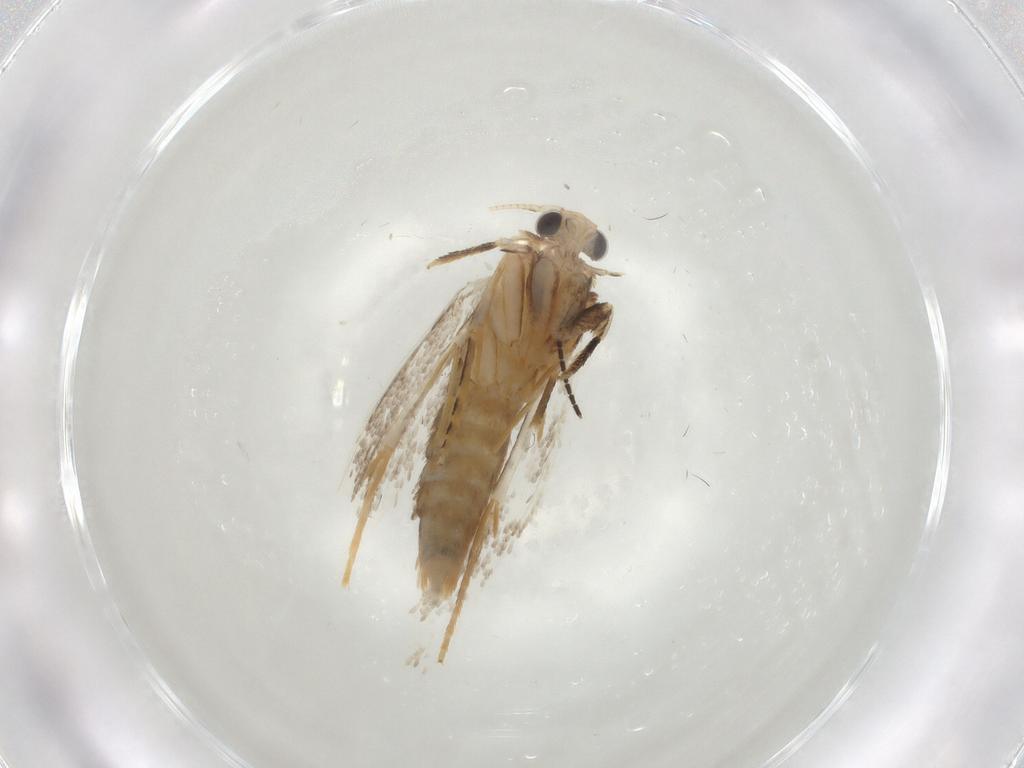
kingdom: Animalia
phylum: Arthropoda
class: Insecta
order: Lepidoptera
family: Tineidae
